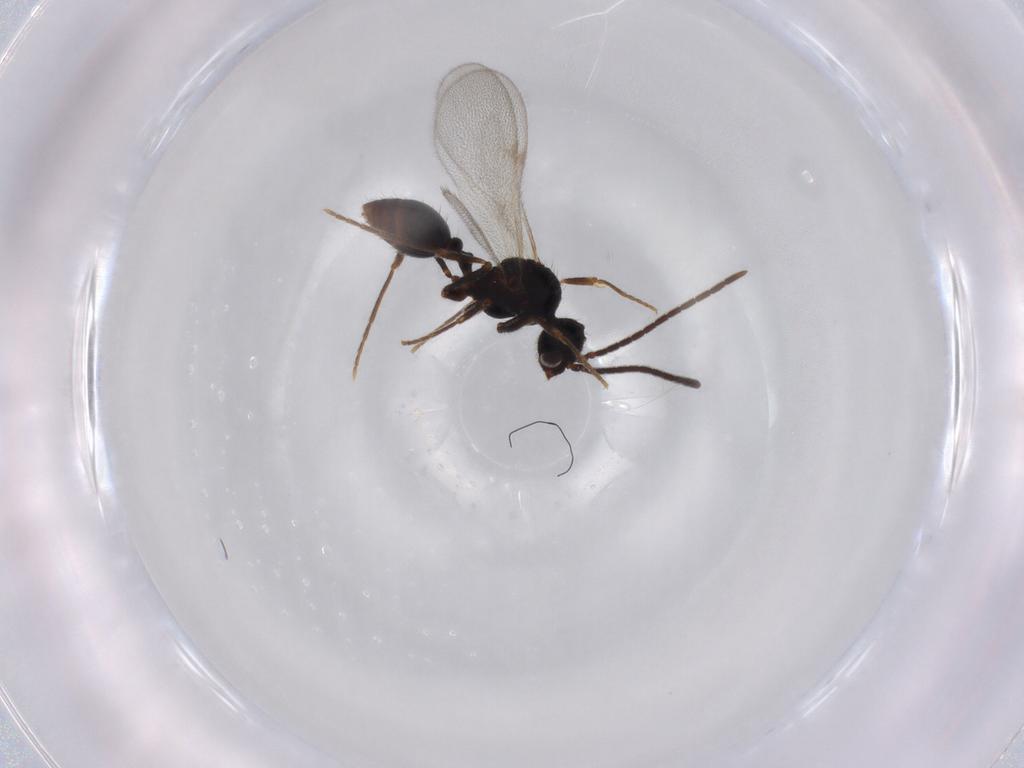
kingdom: Animalia
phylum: Arthropoda
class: Insecta
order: Hymenoptera
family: Formicidae
